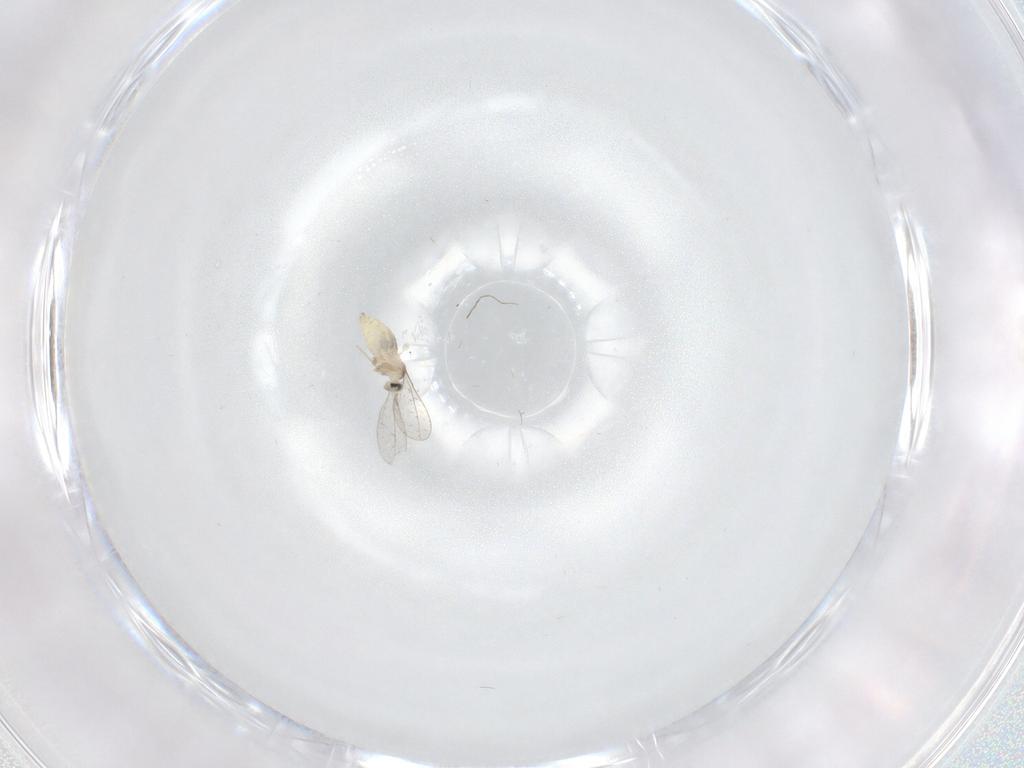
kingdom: Animalia
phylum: Arthropoda
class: Insecta
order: Diptera
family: Cecidomyiidae
